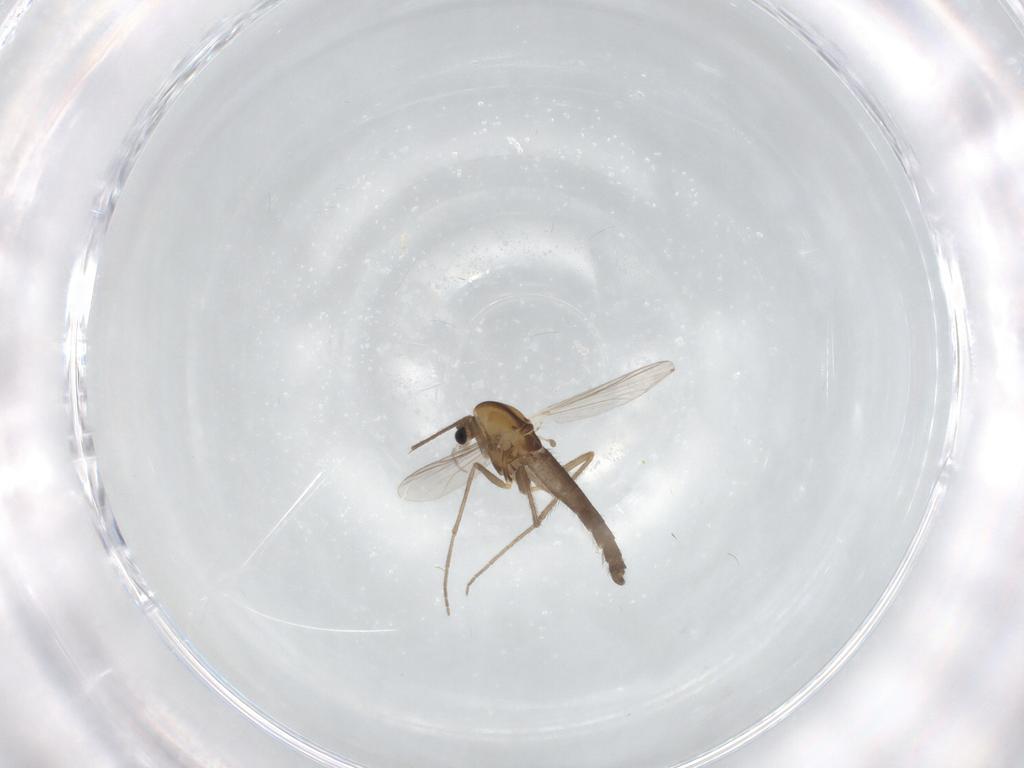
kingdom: Animalia
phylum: Arthropoda
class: Insecta
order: Diptera
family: Chironomidae
